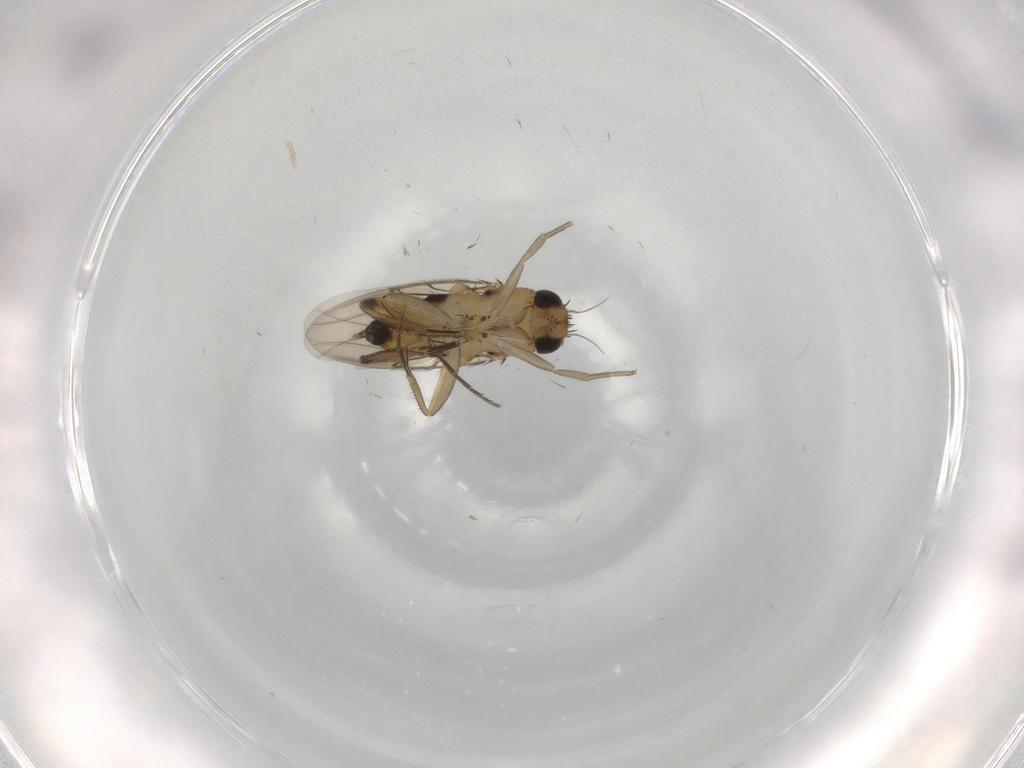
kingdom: Animalia
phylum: Arthropoda
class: Insecta
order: Diptera
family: Phoridae
